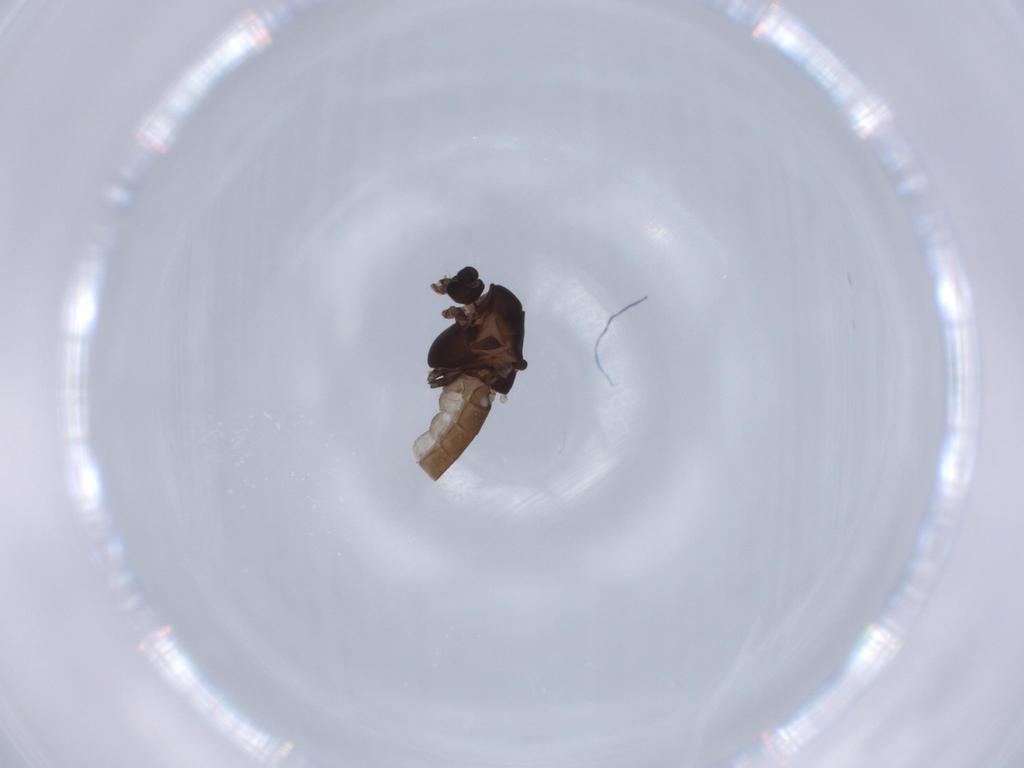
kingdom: Animalia
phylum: Arthropoda
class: Insecta
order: Diptera
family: Chironomidae
